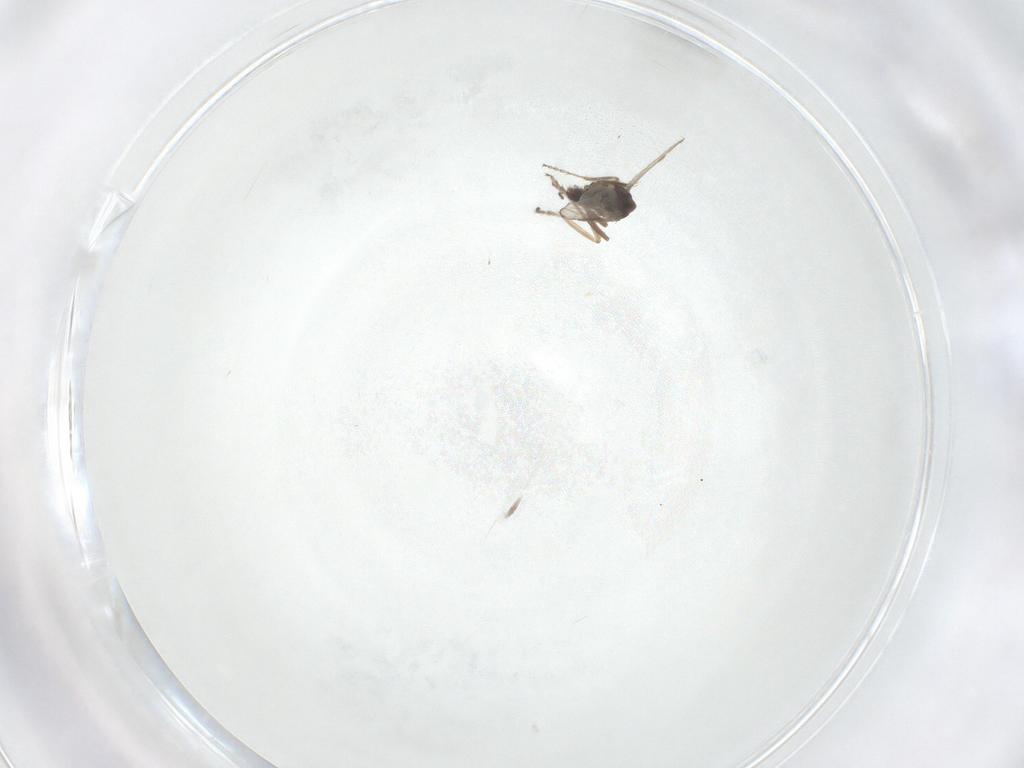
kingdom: Animalia
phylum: Arthropoda
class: Insecta
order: Diptera
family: Ceratopogonidae
